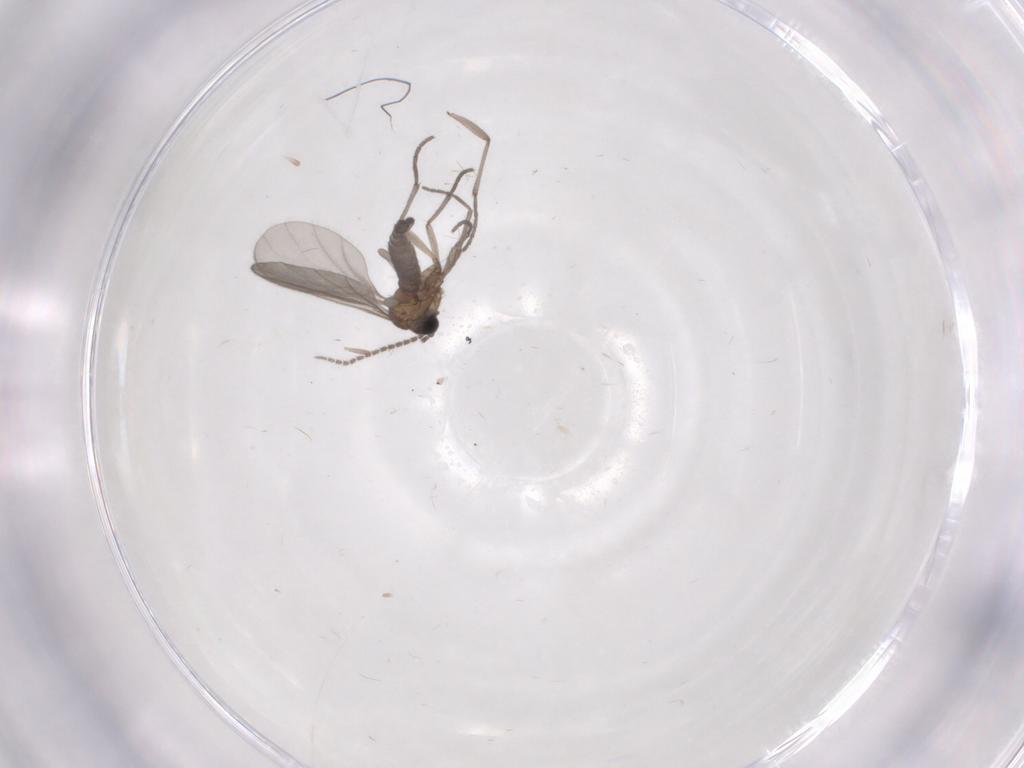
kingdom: Animalia
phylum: Arthropoda
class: Insecta
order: Diptera
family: Sciaridae
